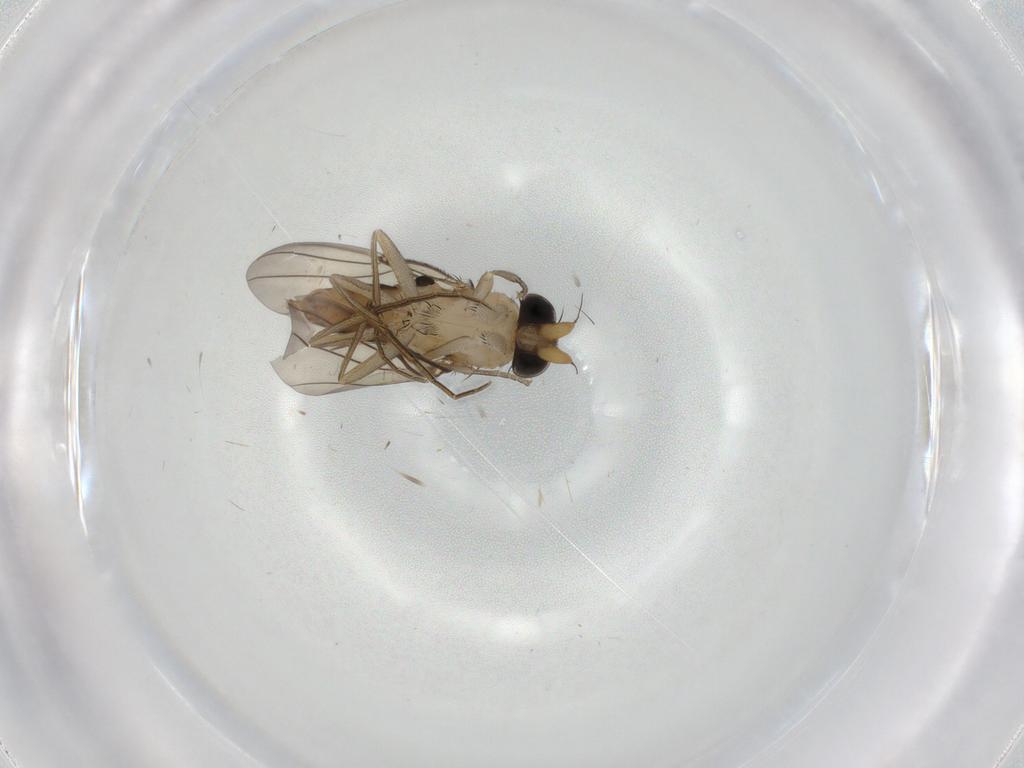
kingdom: Animalia
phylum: Arthropoda
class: Insecta
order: Diptera
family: Phoridae
